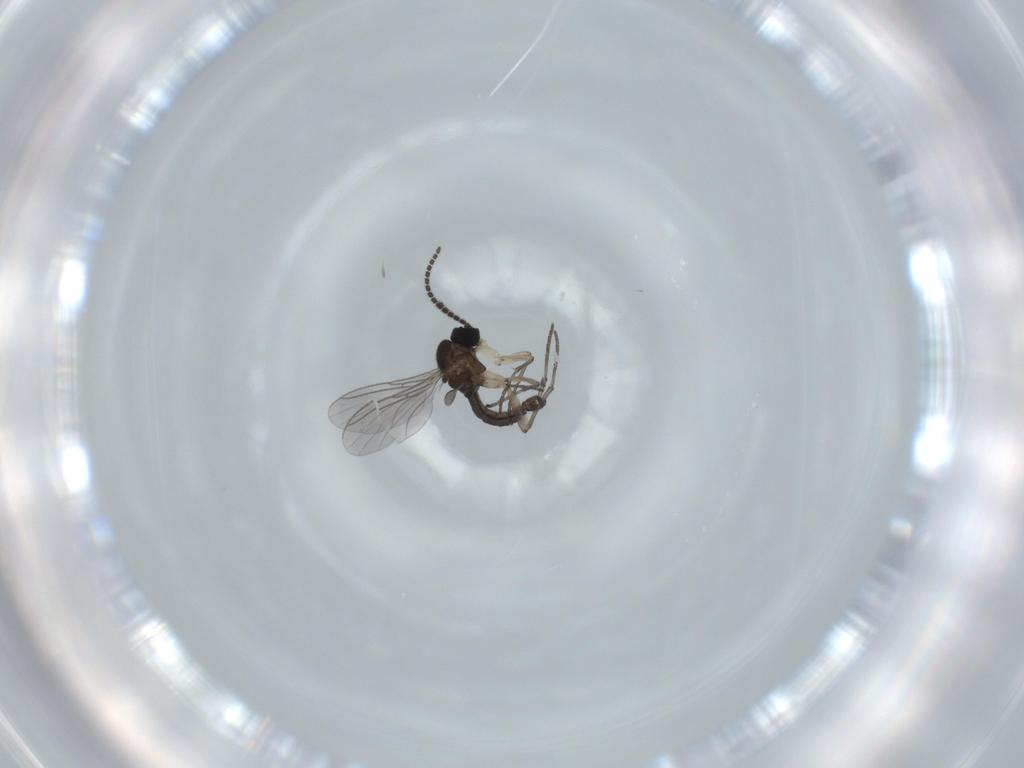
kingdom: Animalia
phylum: Arthropoda
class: Insecta
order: Diptera
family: Sciaridae
